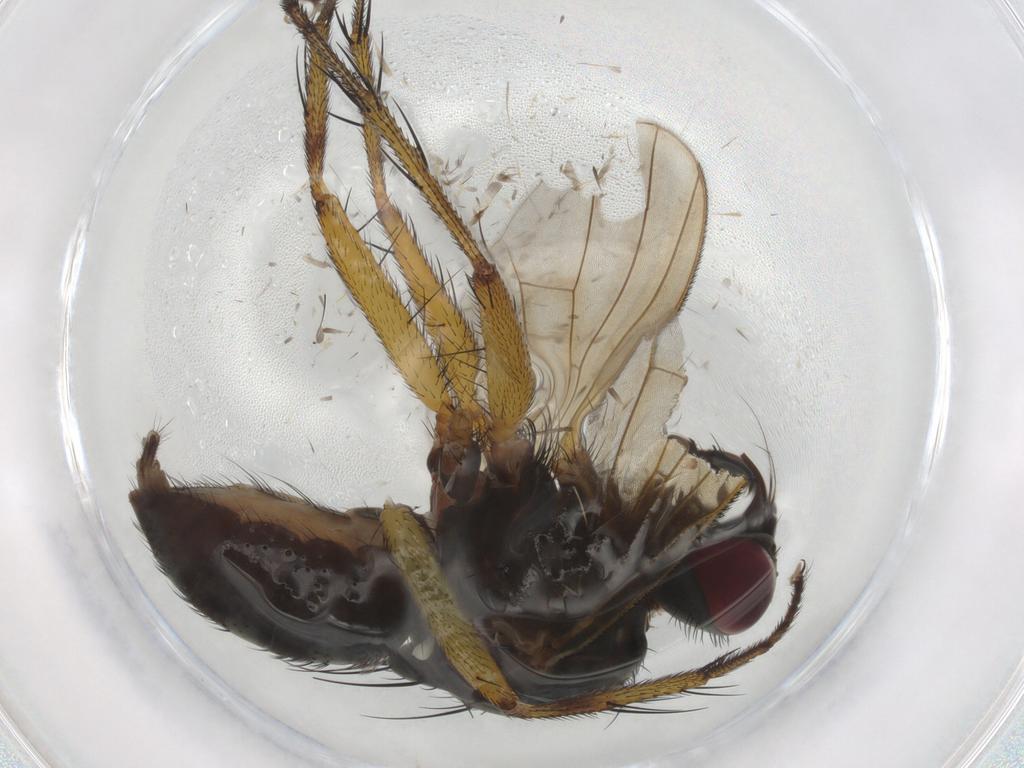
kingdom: Animalia
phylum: Arthropoda
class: Insecta
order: Diptera
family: Muscidae
